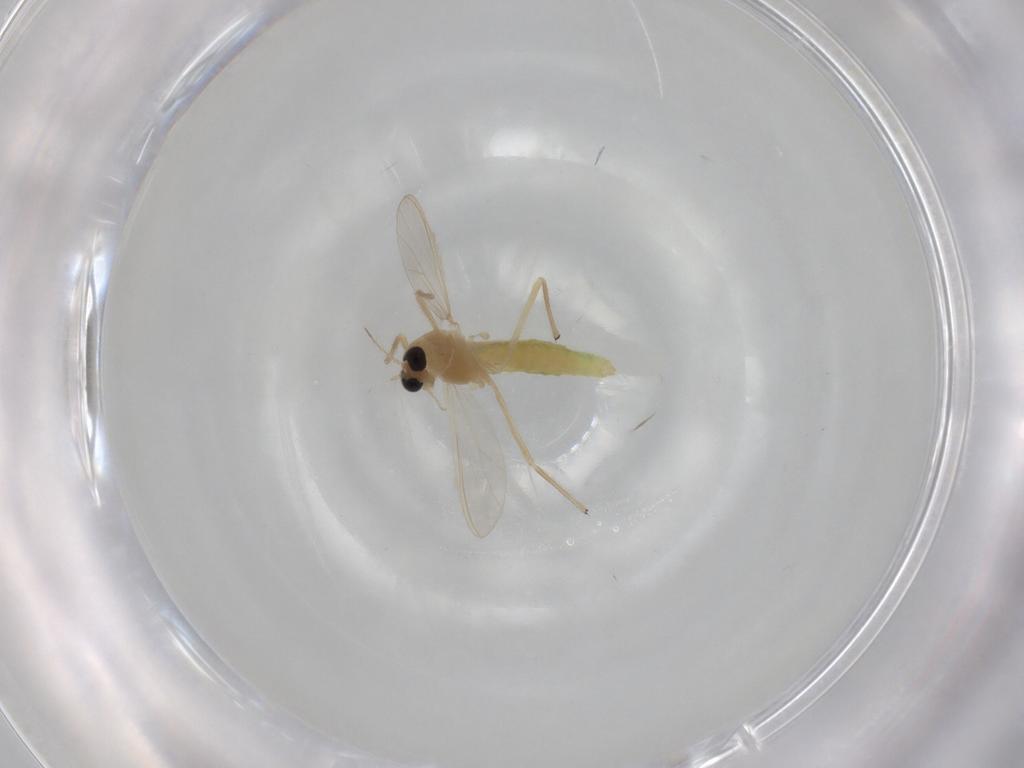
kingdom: Animalia
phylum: Arthropoda
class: Insecta
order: Diptera
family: Chironomidae
